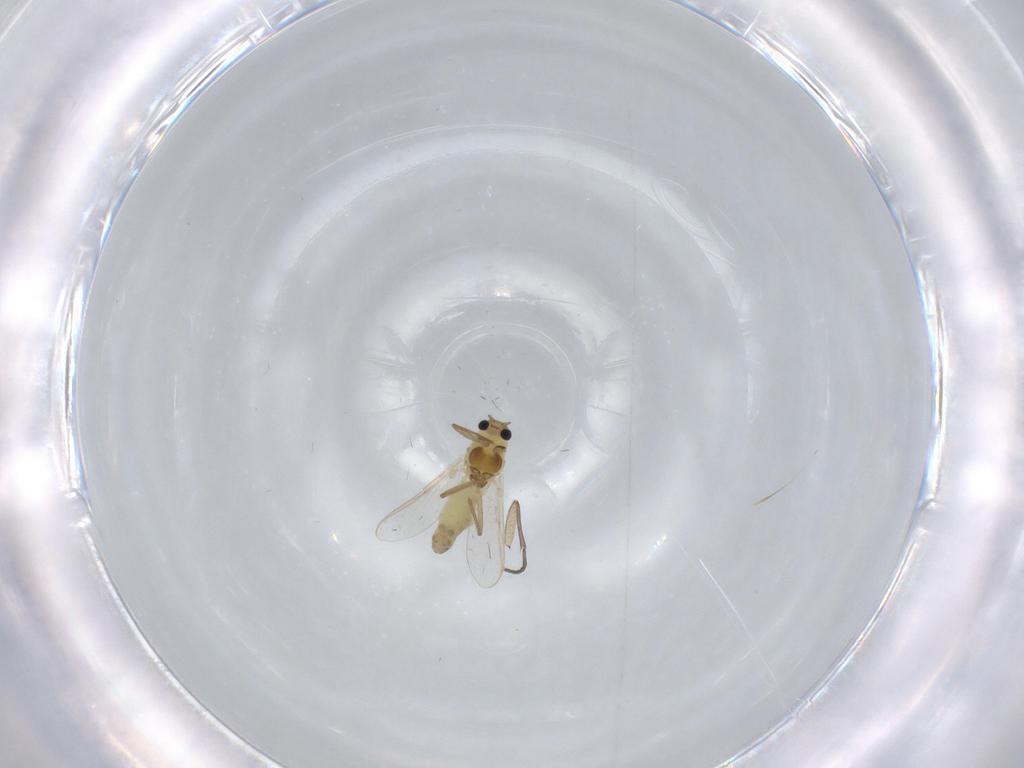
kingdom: Animalia
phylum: Arthropoda
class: Insecta
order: Diptera
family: Chironomidae
